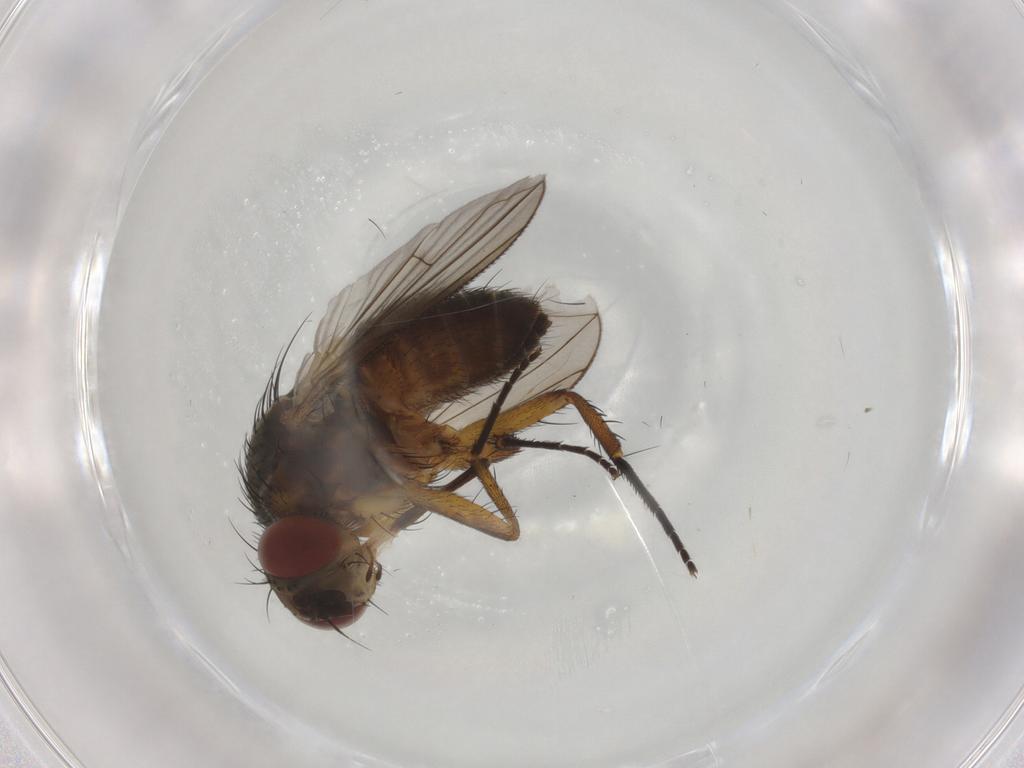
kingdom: Animalia
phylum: Arthropoda
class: Insecta
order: Diptera
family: Tachinidae
